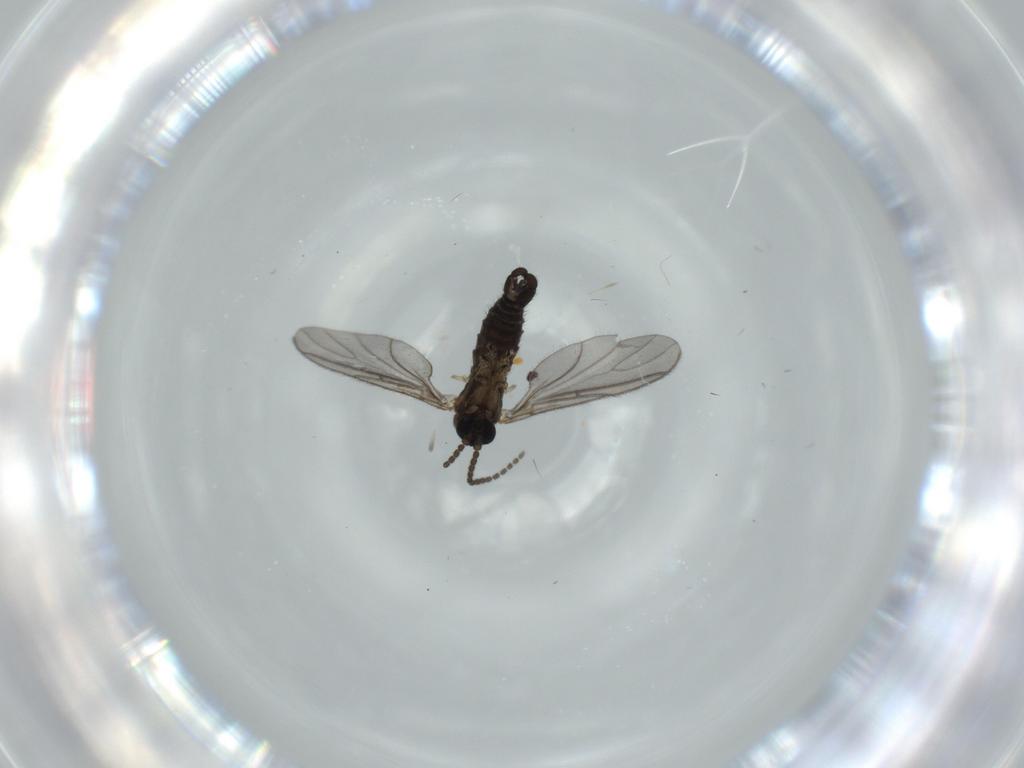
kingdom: Animalia
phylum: Arthropoda
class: Insecta
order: Diptera
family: Sciaridae
